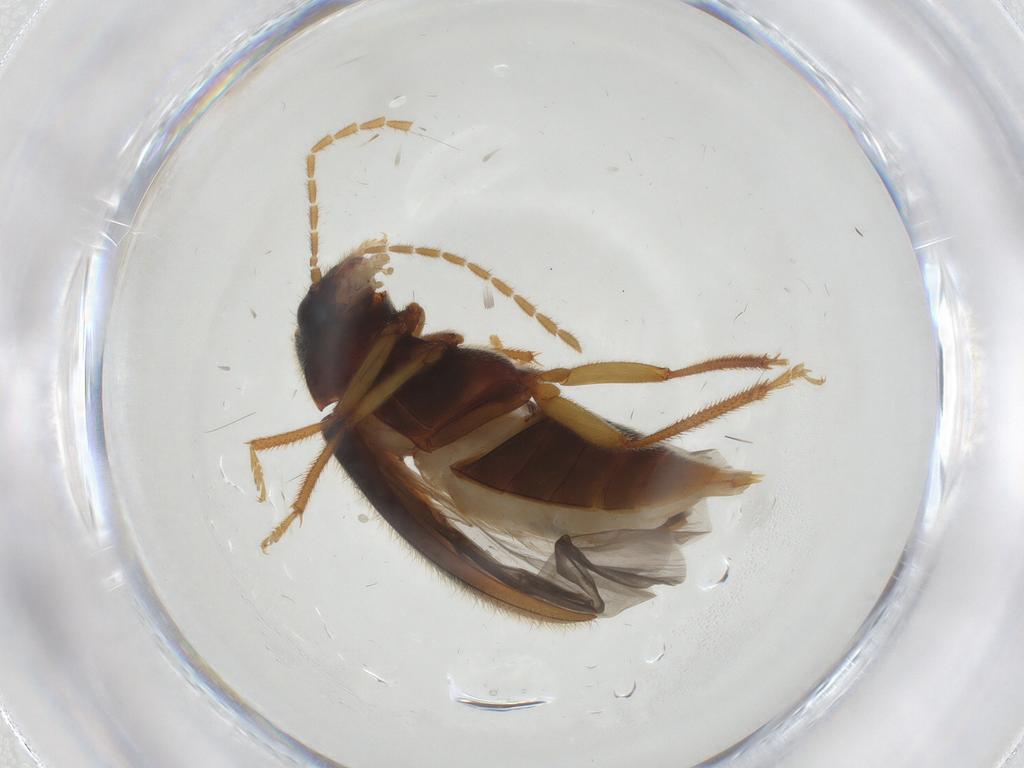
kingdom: Animalia
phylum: Arthropoda
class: Insecta
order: Coleoptera
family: Ptilodactylidae
